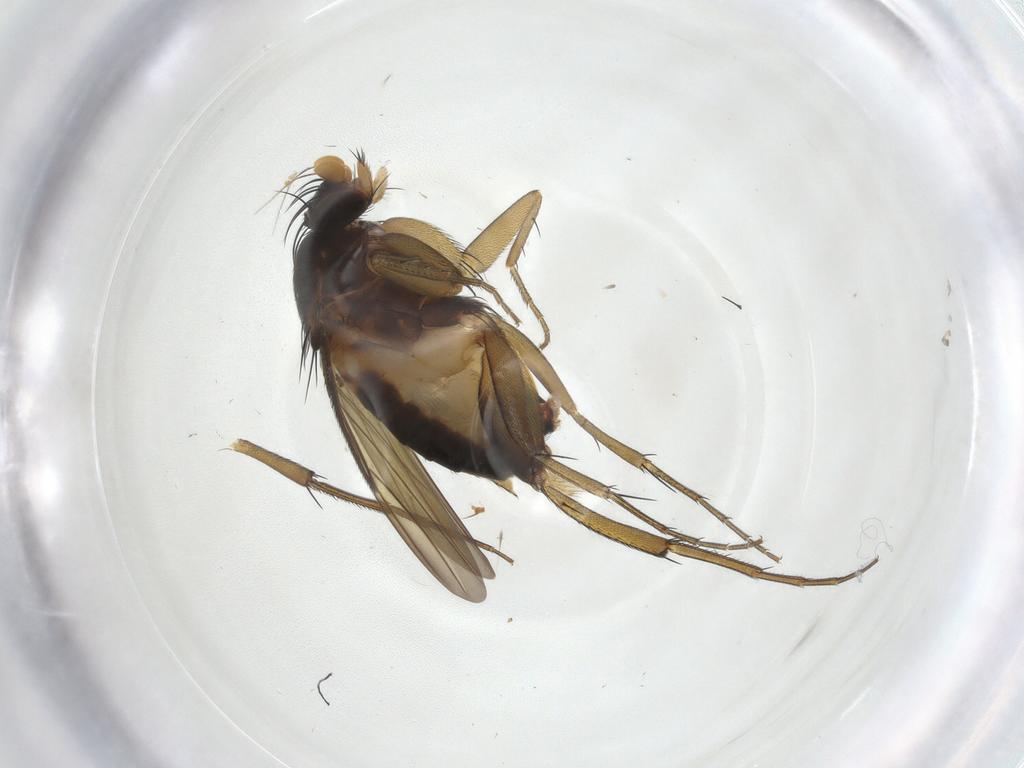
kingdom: Animalia
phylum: Arthropoda
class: Insecta
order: Diptera
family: Phoridae
